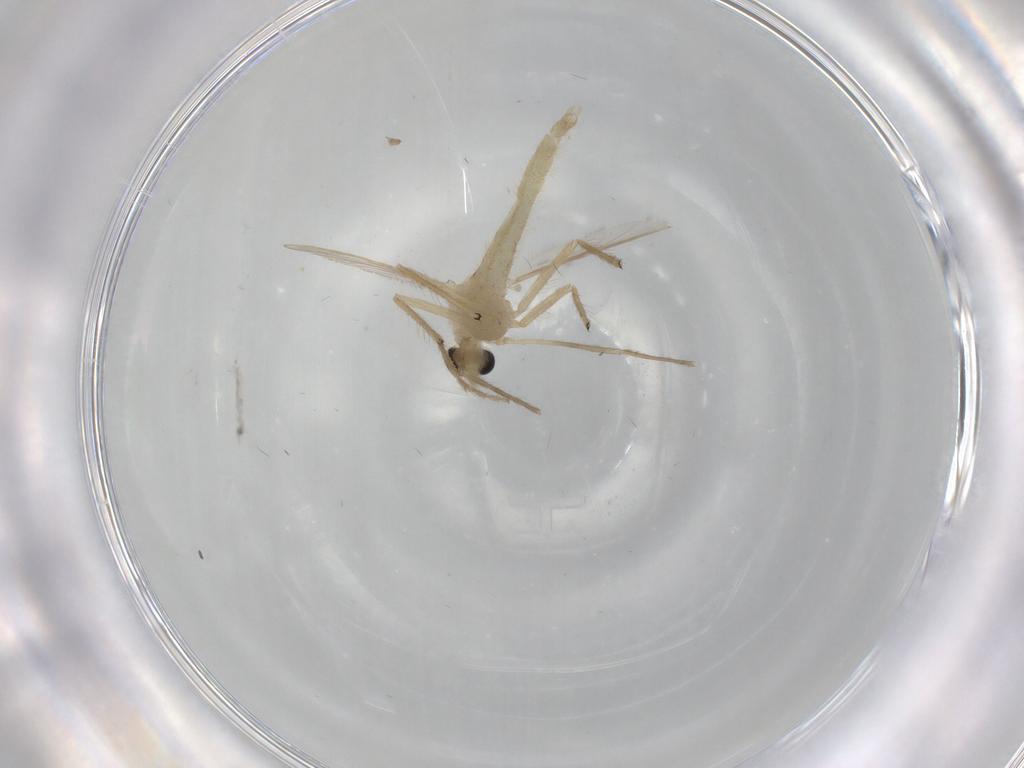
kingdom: Animalia
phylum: Arthropoda
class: Insecta
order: Diptera
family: Chironomidae
